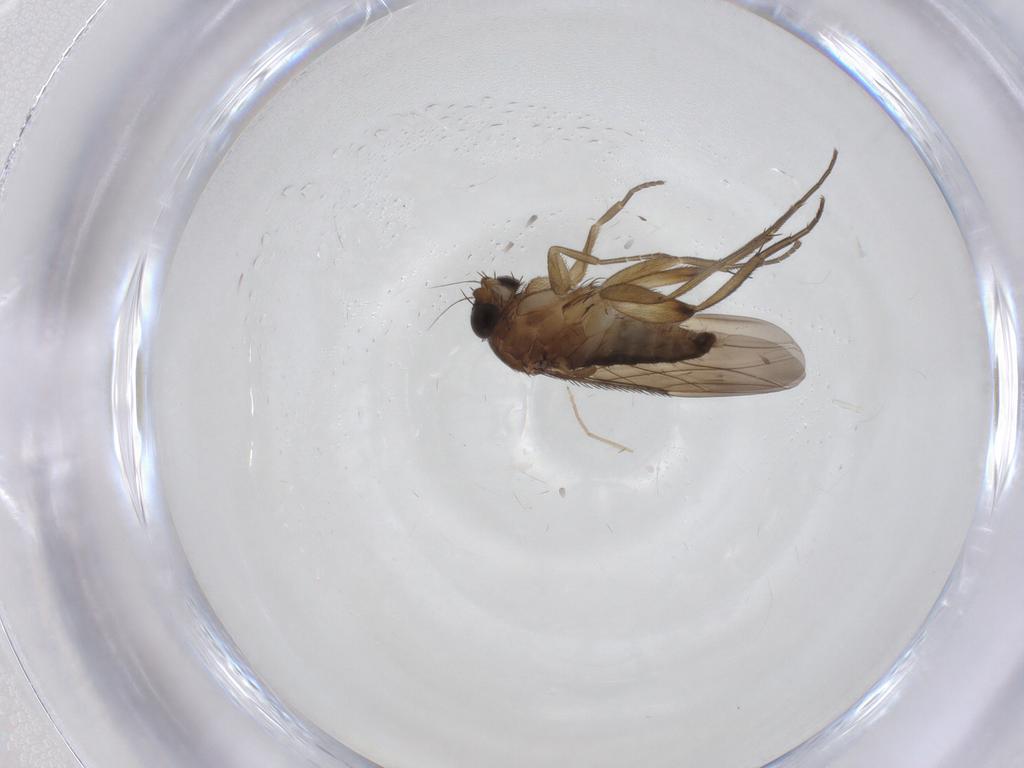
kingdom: Animalia
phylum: Arthropoda
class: Insecta
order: Diptera
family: Phoridae
